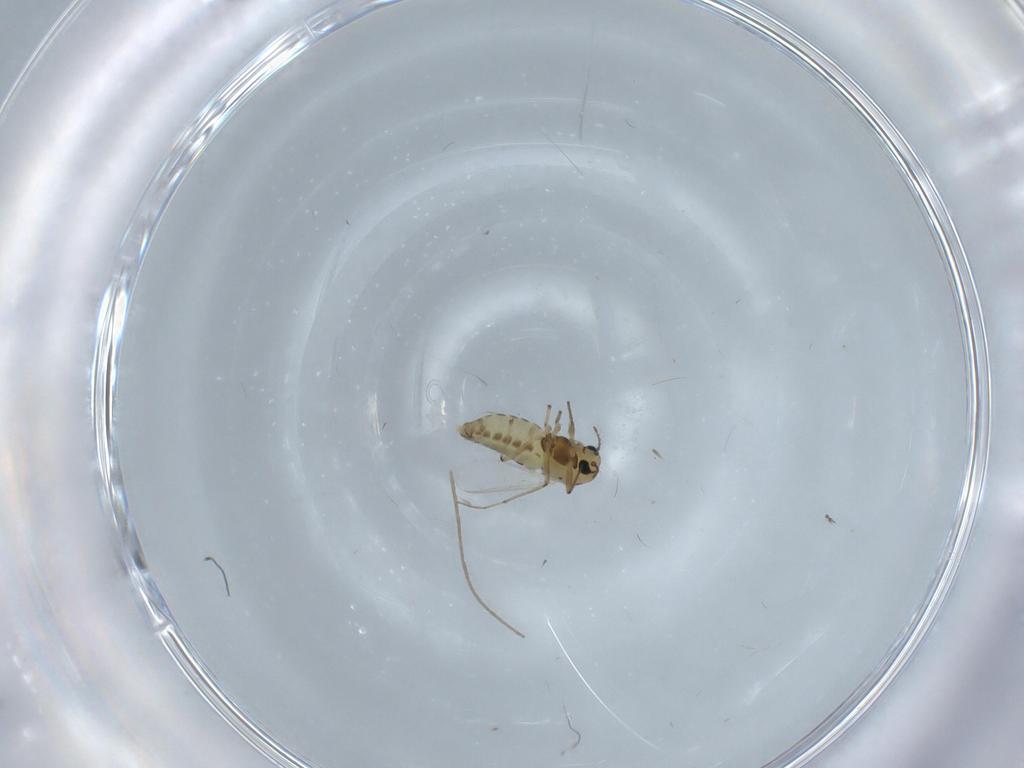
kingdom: Animalia
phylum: Arthropoda
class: Insecta
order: Diptera
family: Chironomidae
